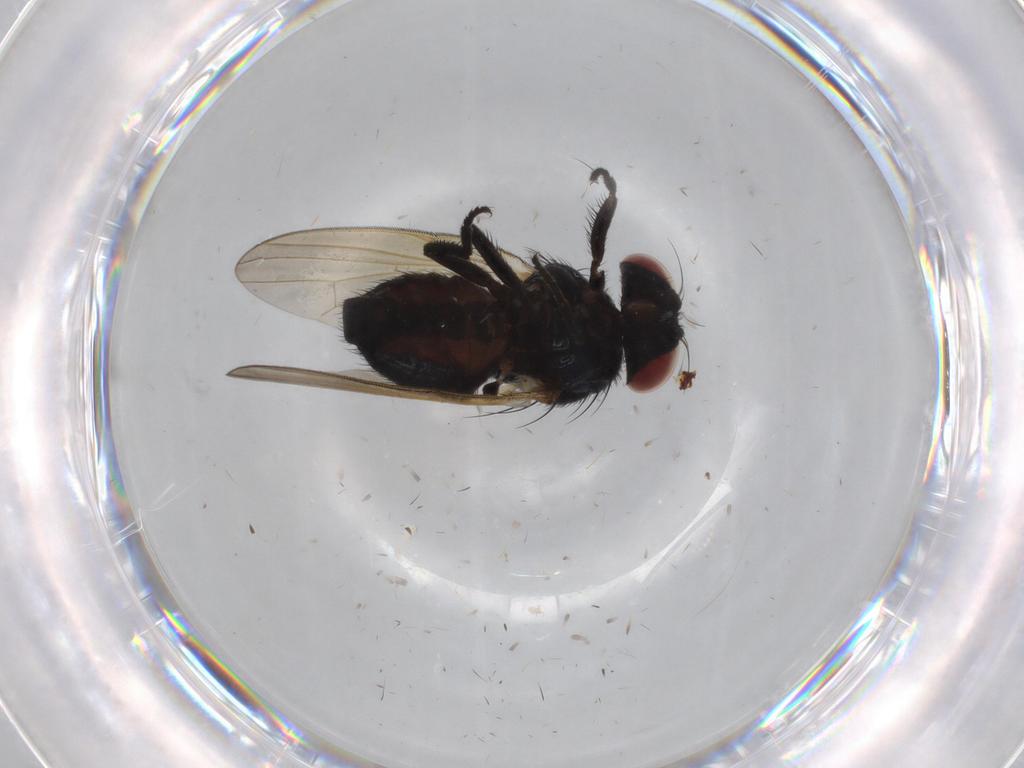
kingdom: Animalia
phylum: Arthropoda
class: Insecta
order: Diptera
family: Lonchaeidae
